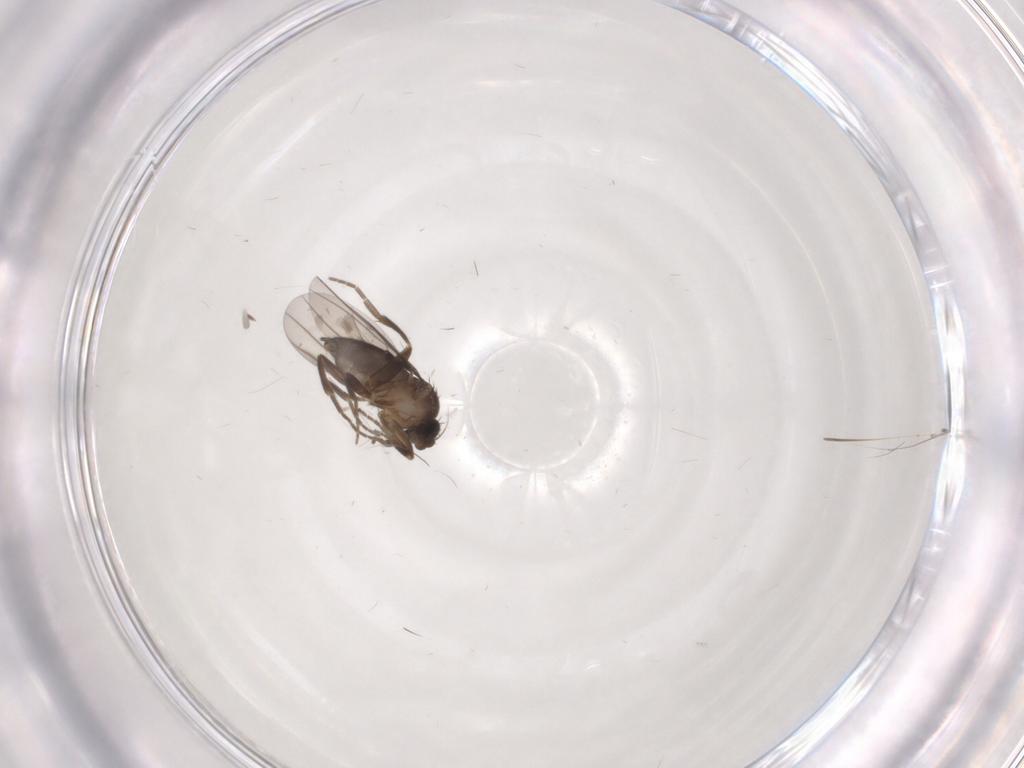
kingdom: Animalia
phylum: Arthropoda
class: Insecta
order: Diptera
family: Phoridae
